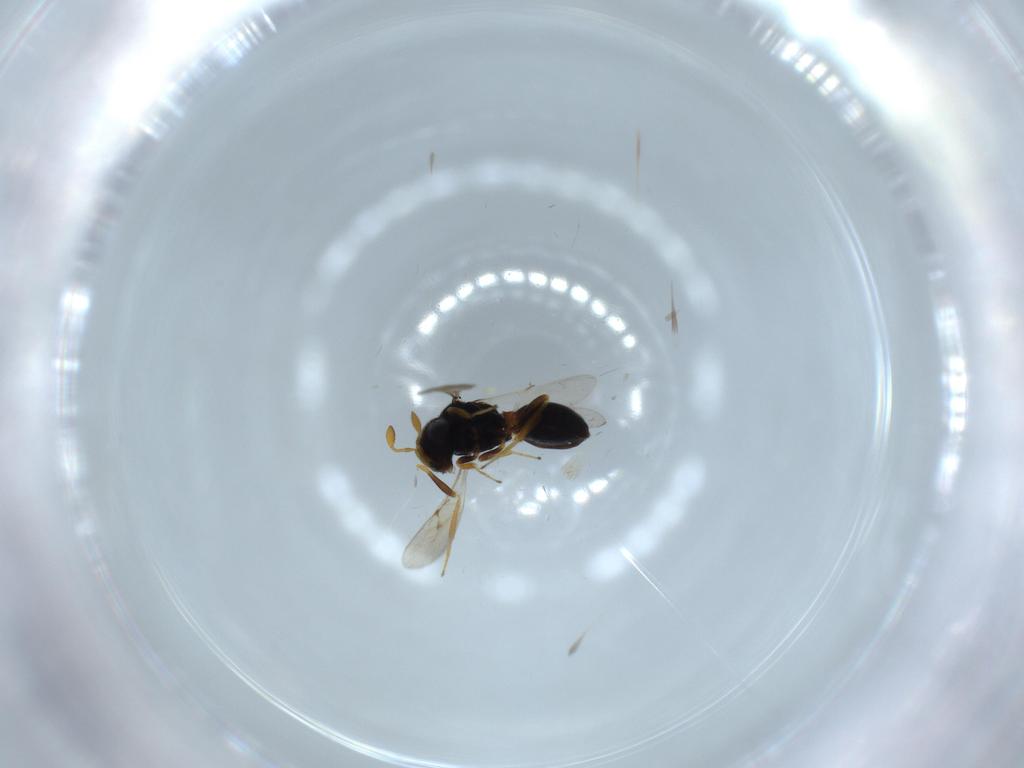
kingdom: Animalia
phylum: Arthropoda
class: Insecta
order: Hymenoptera
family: Scelionidae
